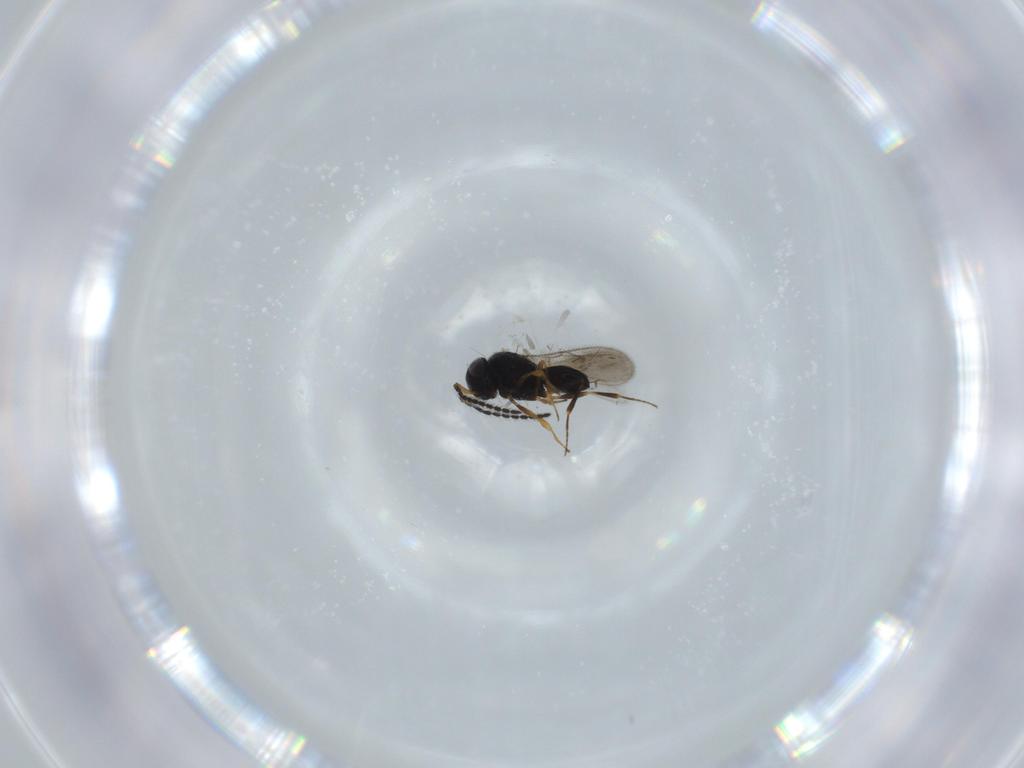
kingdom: Animalia
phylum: Arthropoda
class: Insecta
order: Hymenoptera
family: Scelionidae
